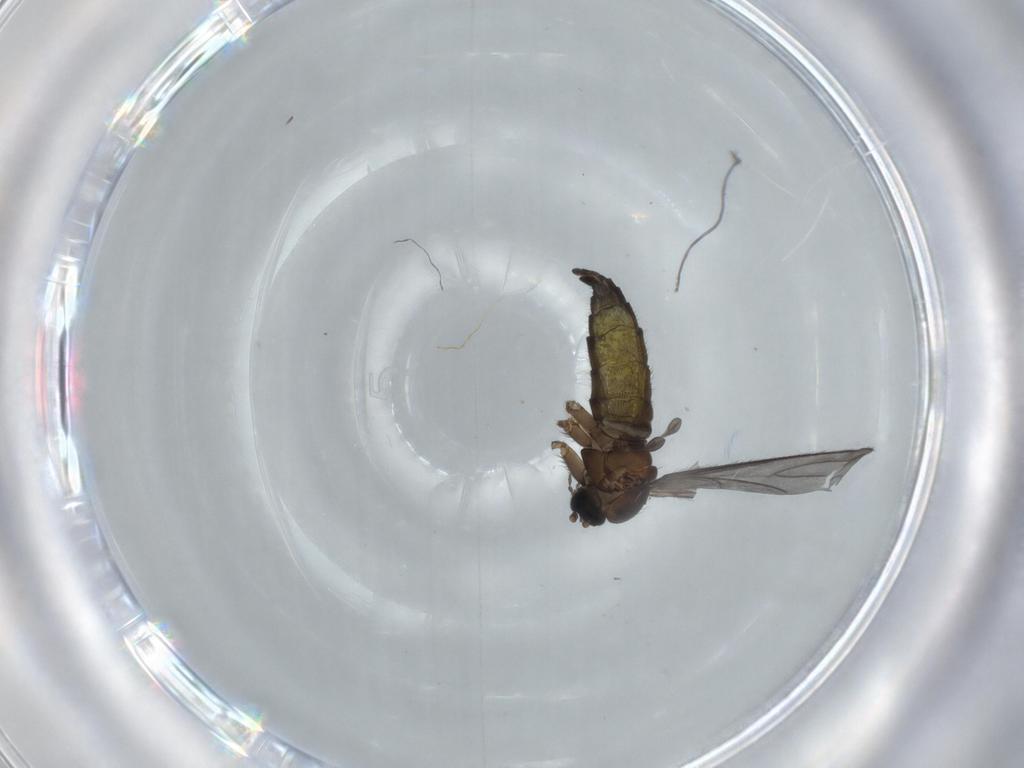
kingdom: Animalia
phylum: Arthropoda
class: Insecta
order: Diptera
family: Sciaridae
